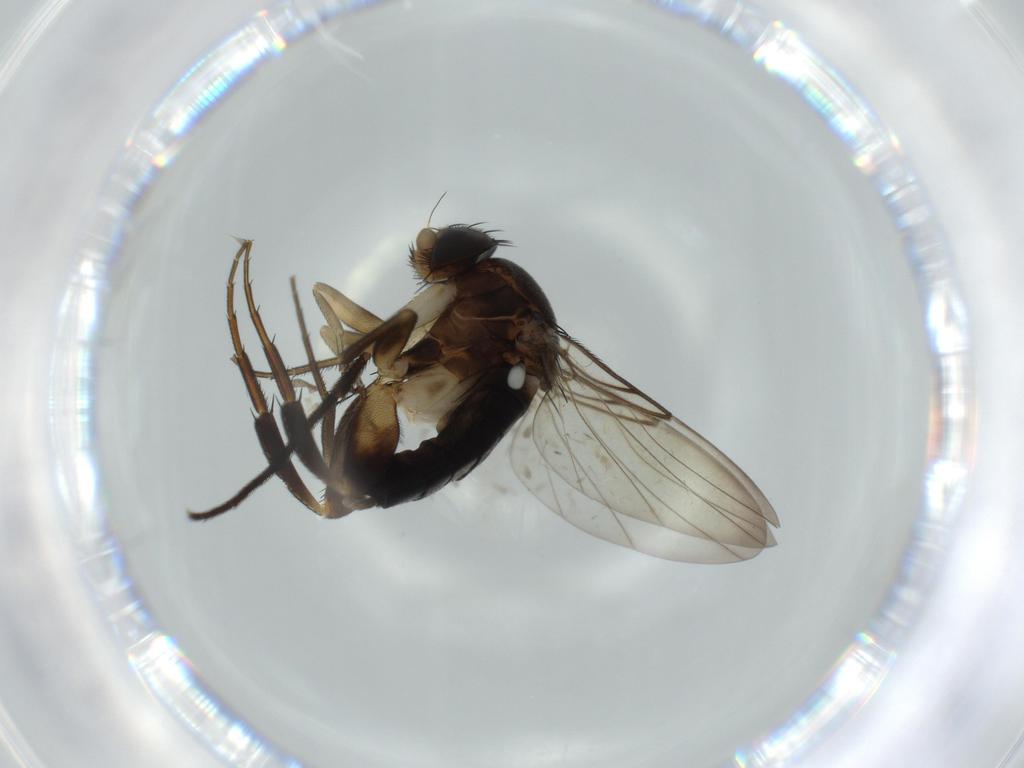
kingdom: Animalia
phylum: Arthropoda
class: Insecta
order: Diptera
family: Phoridae
